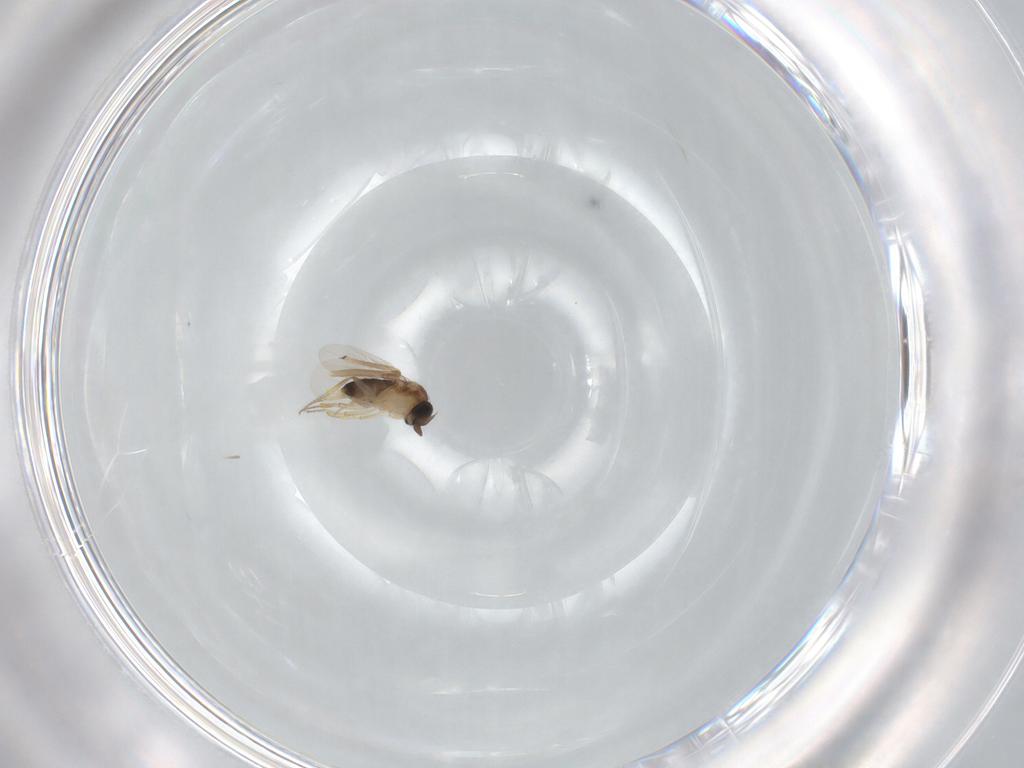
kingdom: Animalia
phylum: Arthropoda
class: Insecta
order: Diptera
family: Phoridae
